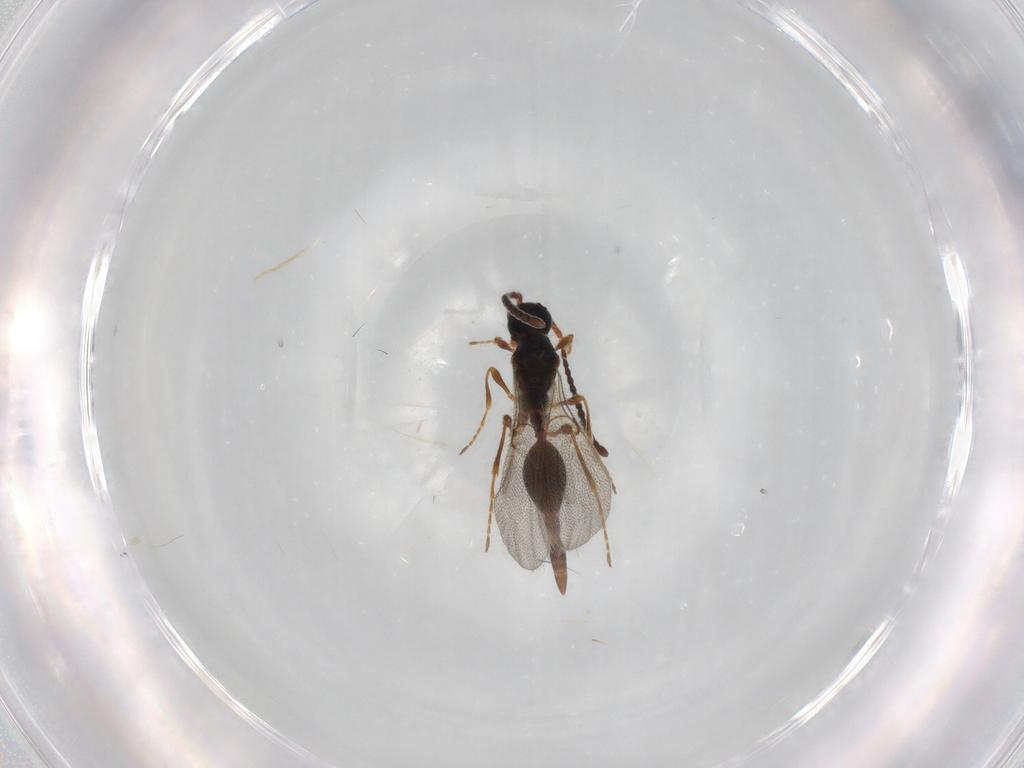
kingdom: Animalia
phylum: Arthropoda
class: Insecta
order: Hymenoptera
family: Diapriidae
